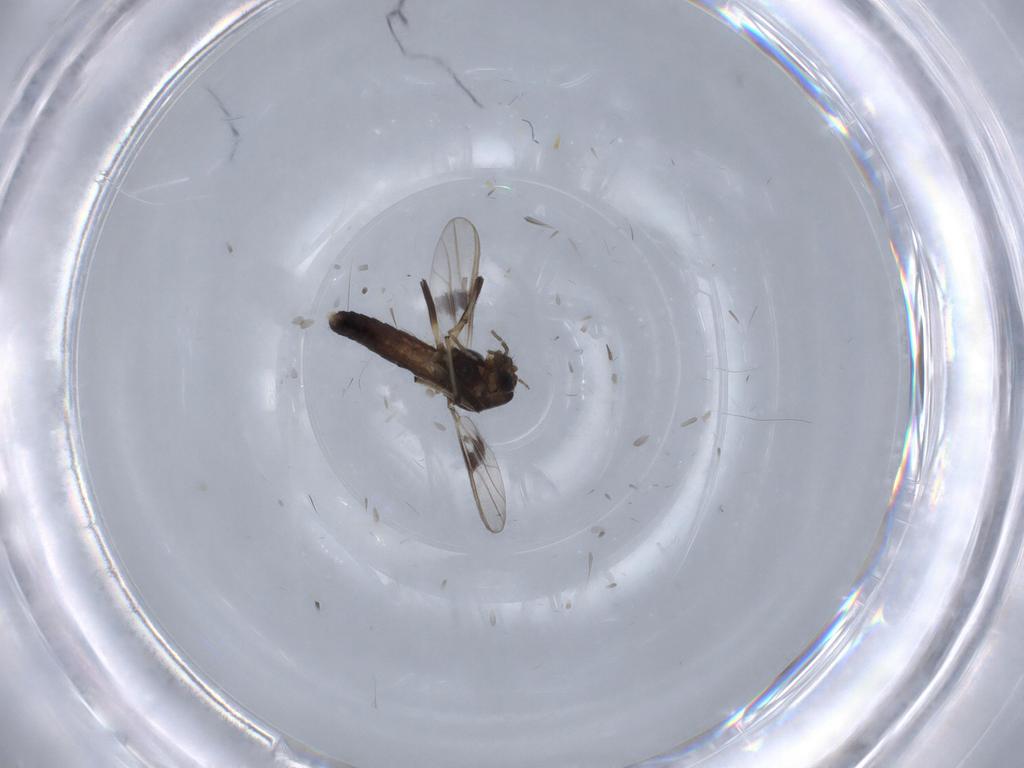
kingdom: Animalia
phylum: Arthropoda
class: Insecta
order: Diptera
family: Chironomidae
